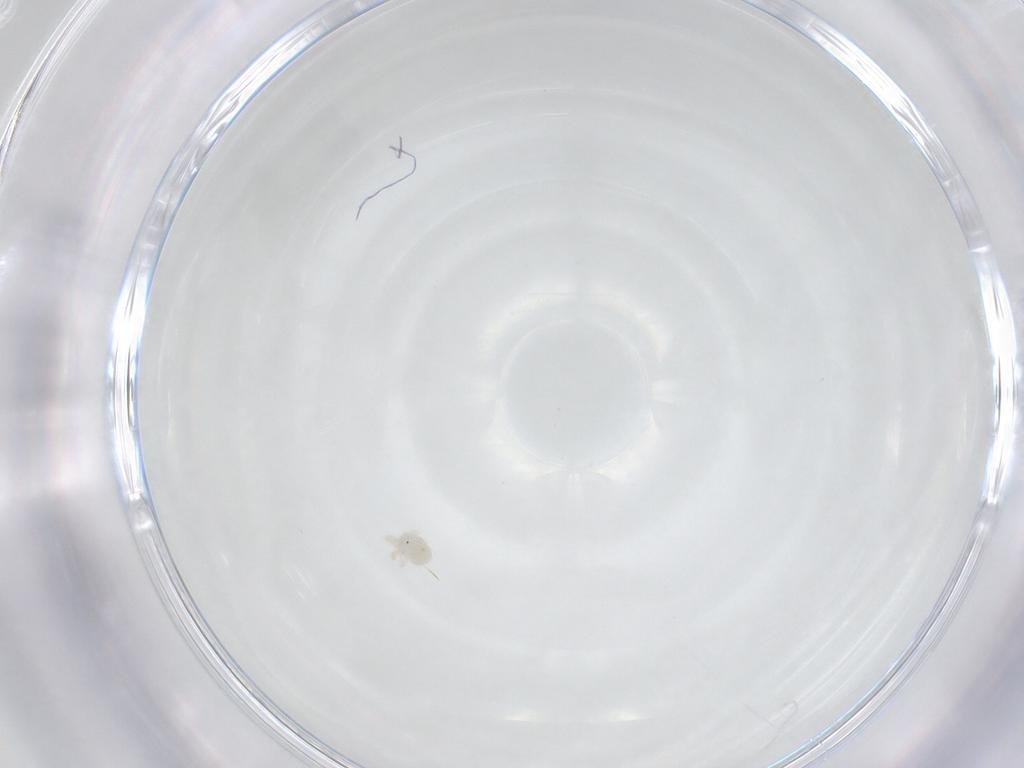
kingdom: Animalia
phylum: Arthropoda
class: Arachnida
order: Trombidiformes
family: Anystidae
